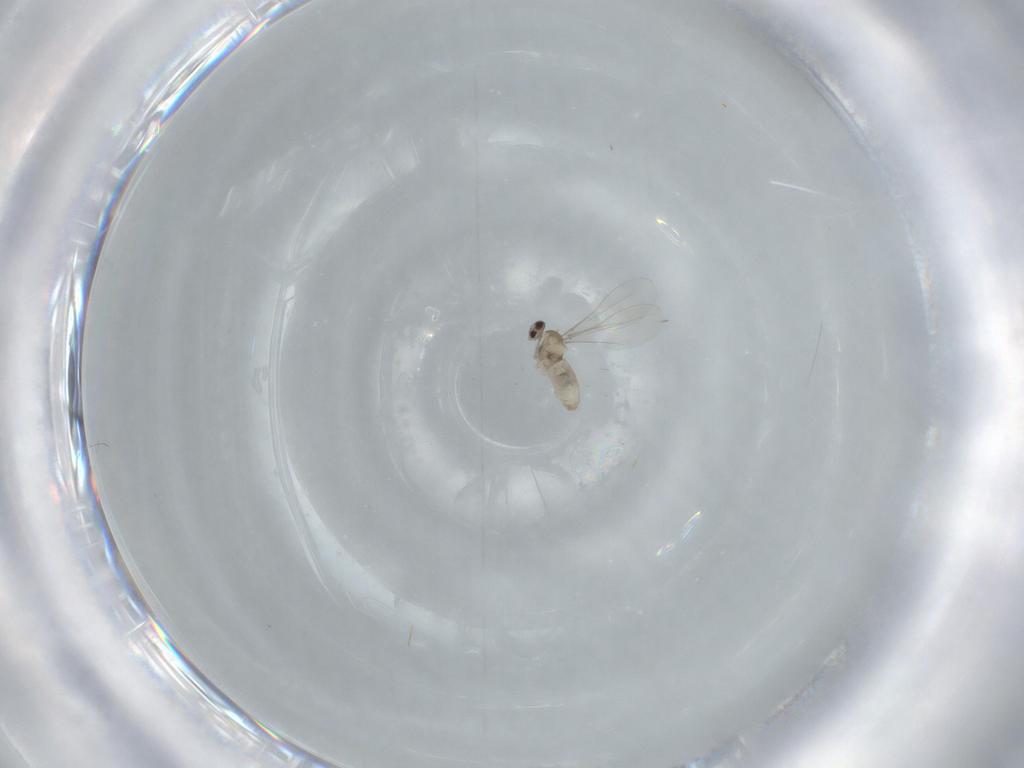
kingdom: Animalia
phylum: Arthropoda
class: Insecta
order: Diptera
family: Cecidomyiidae
